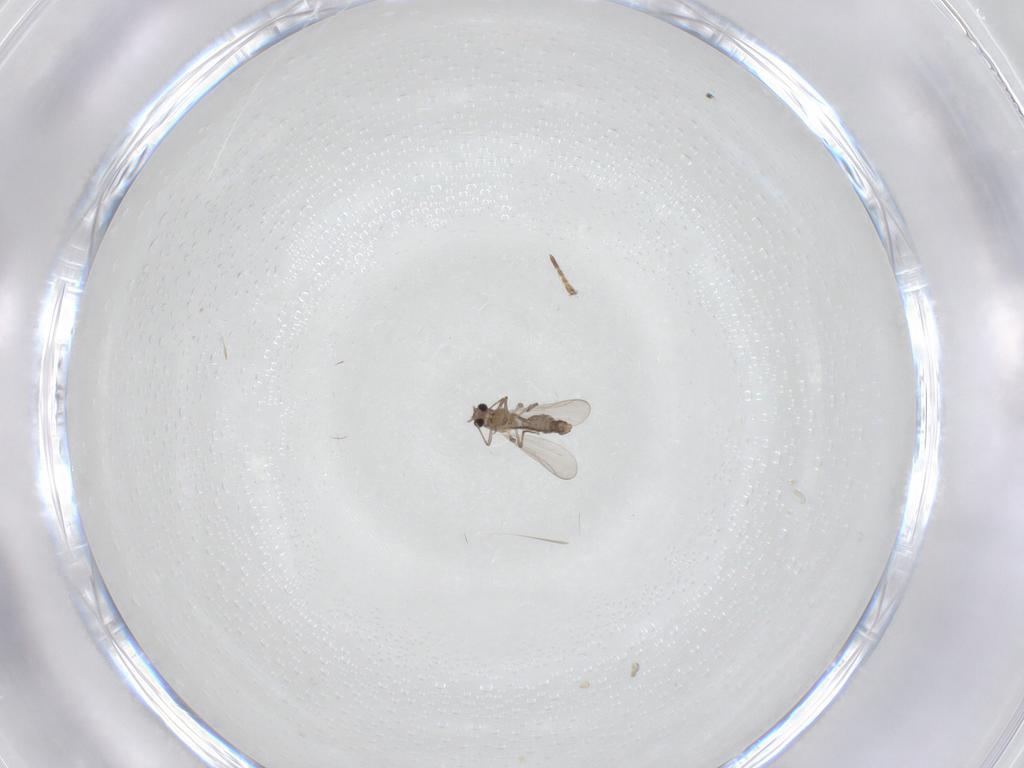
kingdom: Animalia
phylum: Arthropoda
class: Insecta
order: Diptera
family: Chironomidae
